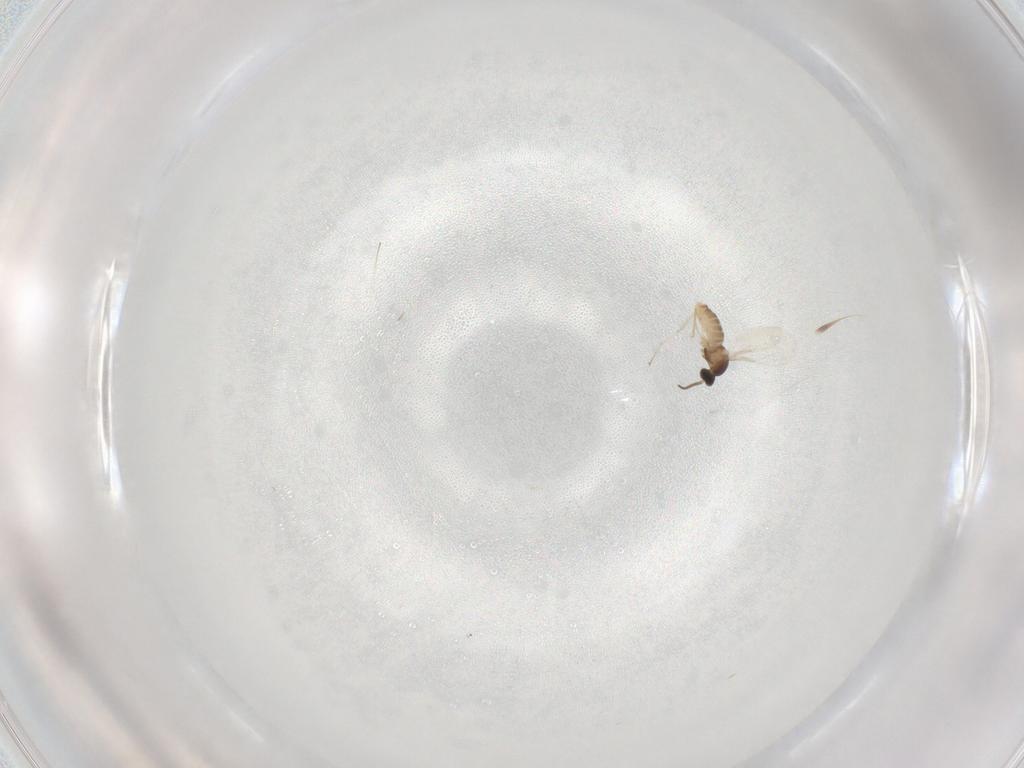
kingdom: Animalia
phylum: Arthropoda
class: Insecta
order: Diptera
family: Cecidomyiidae
